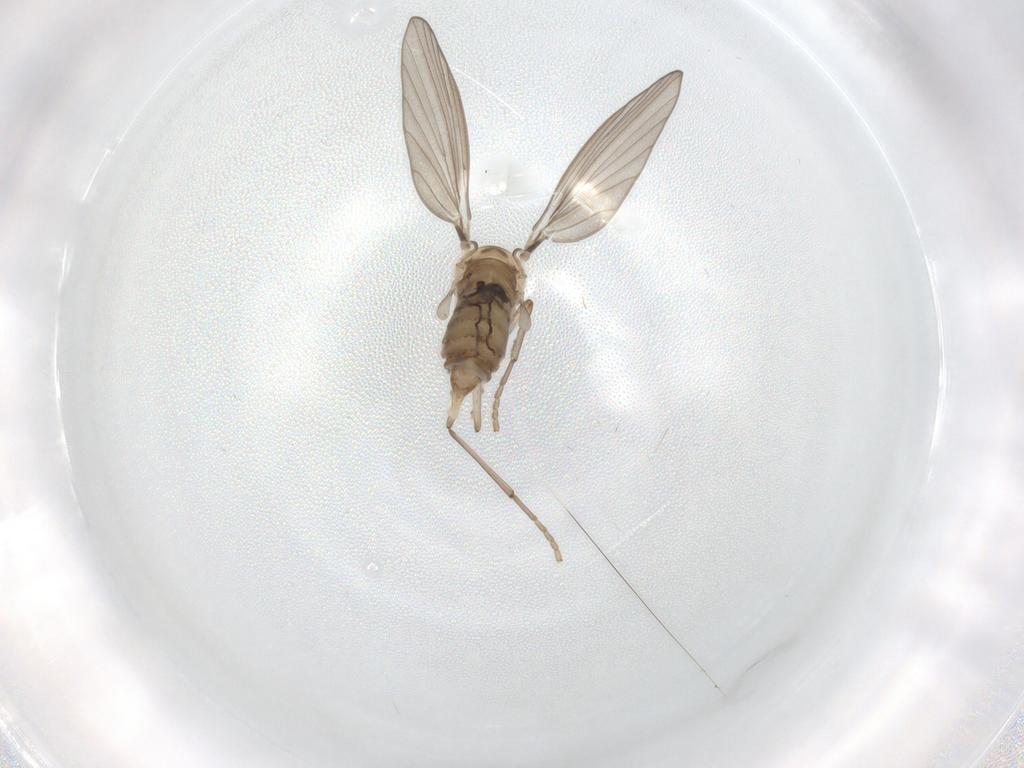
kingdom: Animalia
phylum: Arthropoda
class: Insecta
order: Diptera
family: Psychodidae
